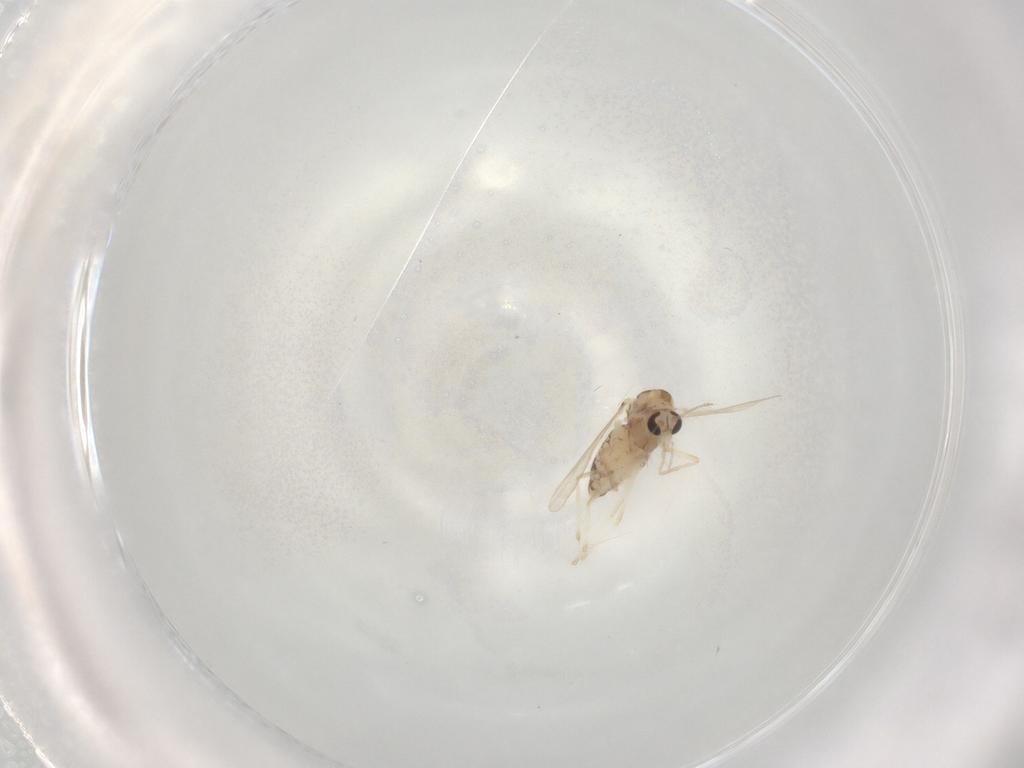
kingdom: Animalia
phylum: Arthropoda
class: Insecta
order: Diptera
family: Chironomidae
